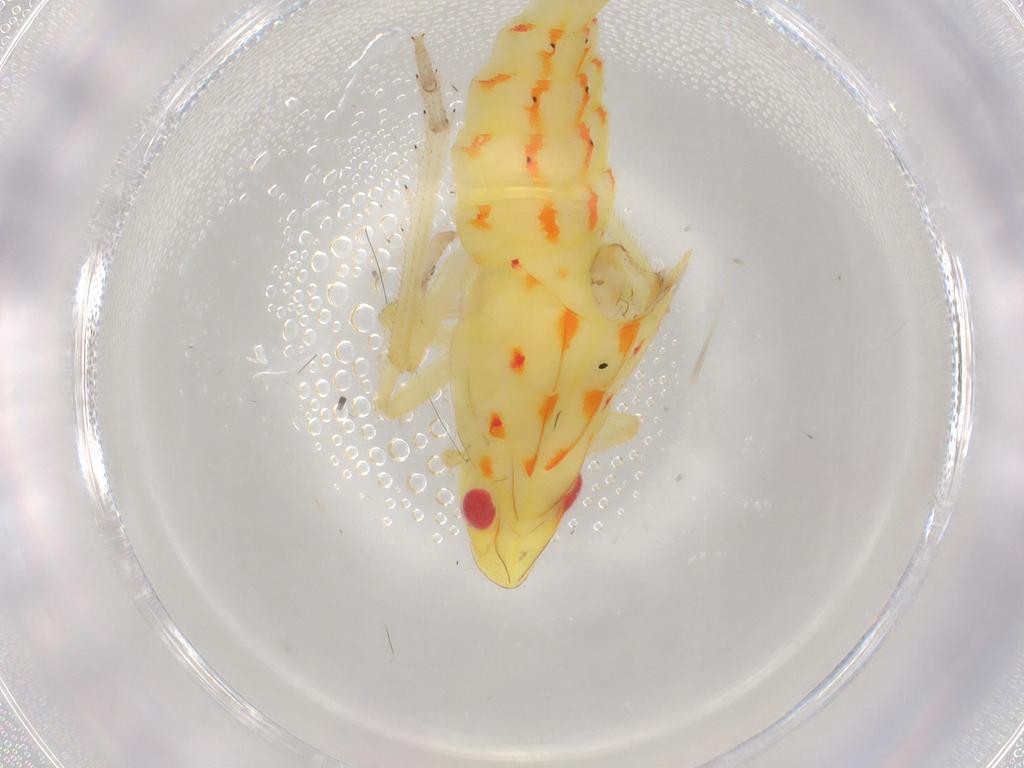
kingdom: Animalia
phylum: Arthropoda
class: Insecta
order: Hemiptera
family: Tropiduchidae
